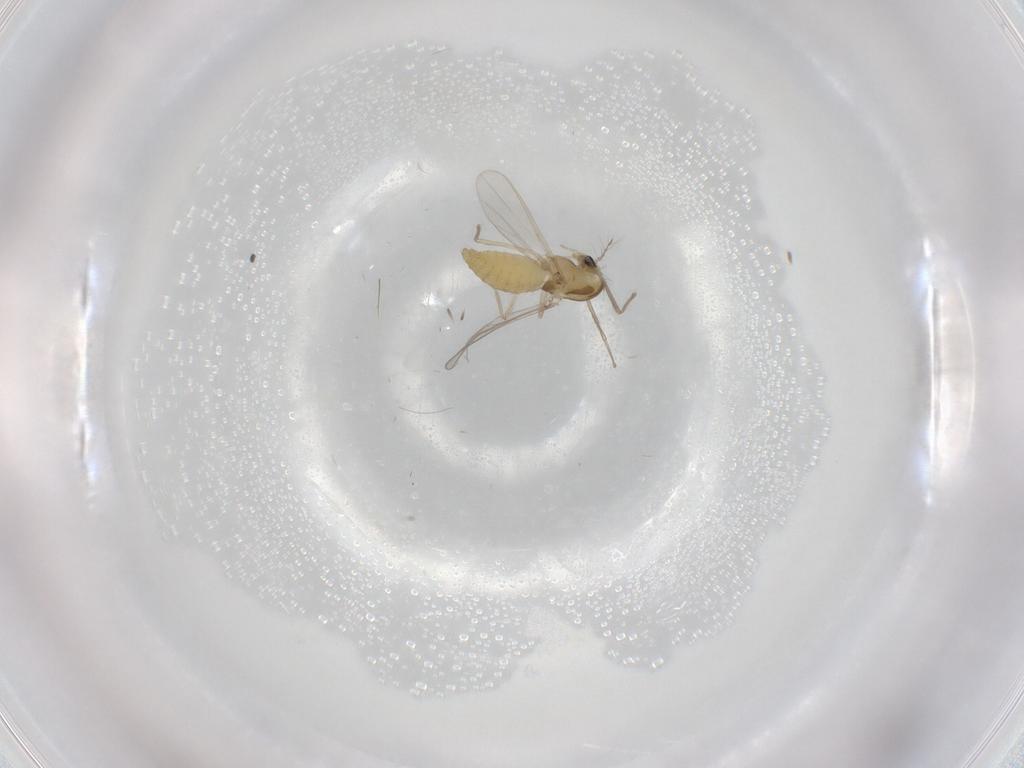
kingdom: Animalia
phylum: Arthropoda
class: Insecta
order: Diptera
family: Chironomidae
